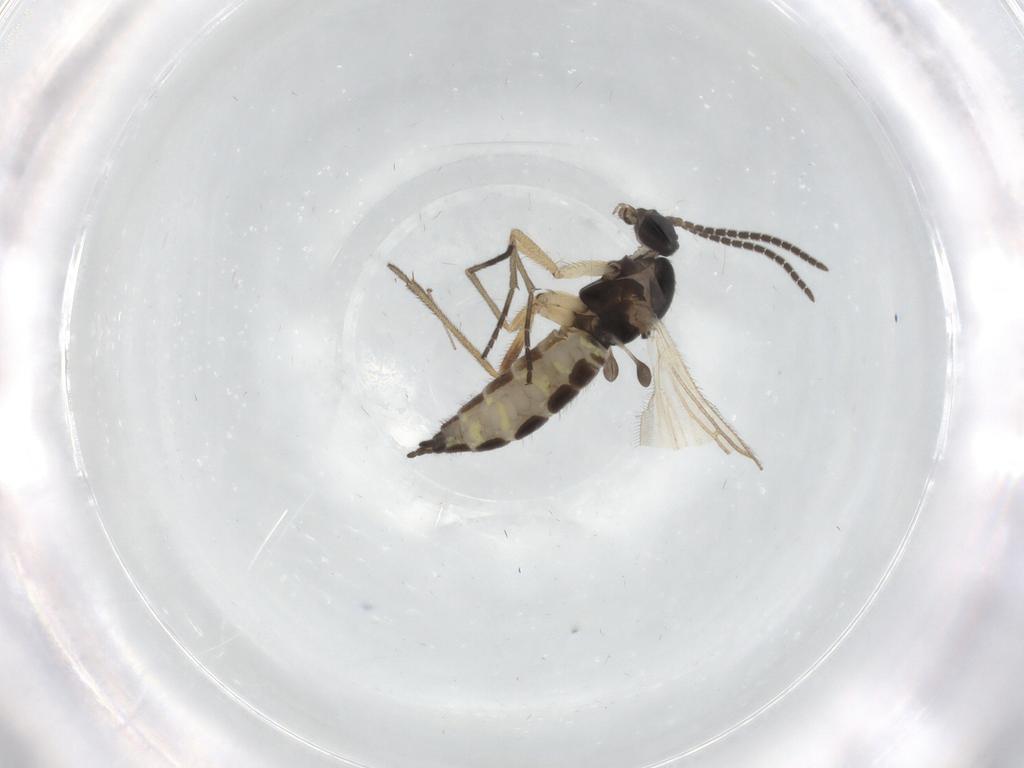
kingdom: Animalia
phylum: Arthropoda
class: Insecta
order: Diptera
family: Sciaridae
